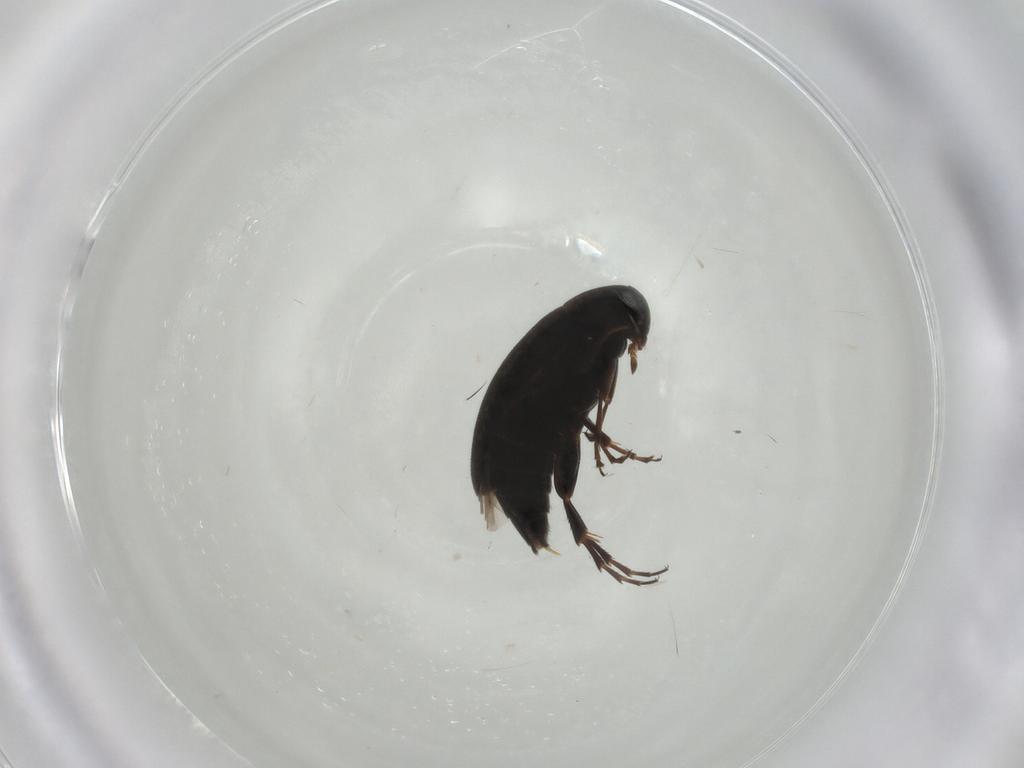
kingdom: Animalia
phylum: Arthropoda
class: Insecta
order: Coleoptera
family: Scraptiidae
